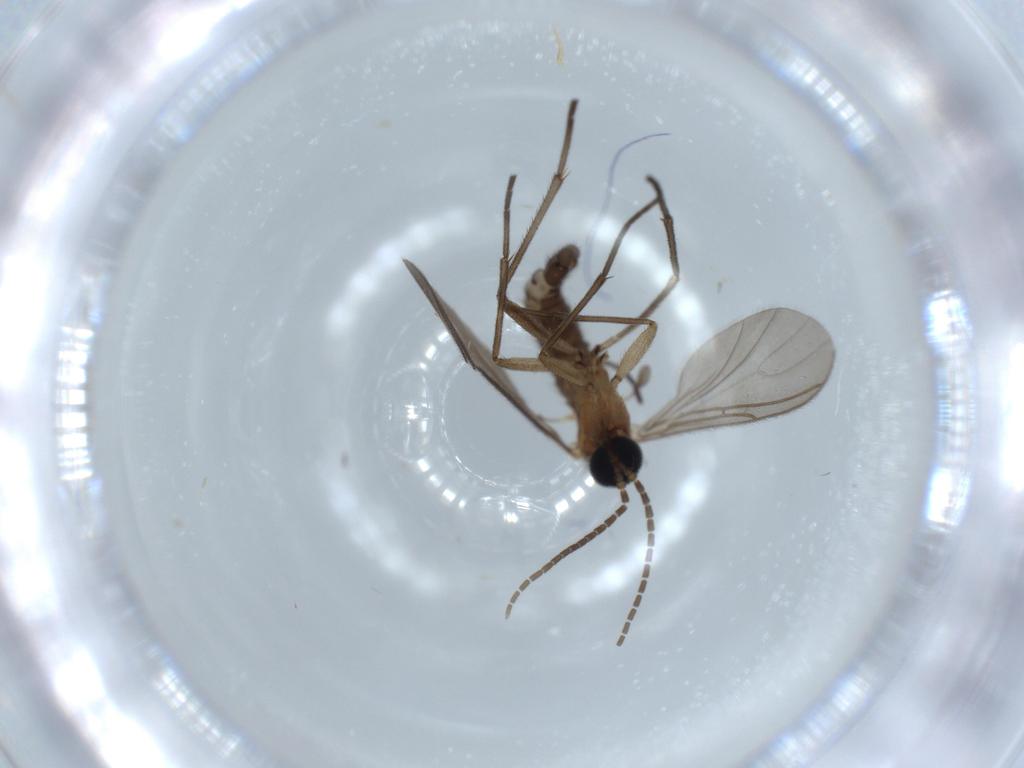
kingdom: Animalia
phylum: Arthropoda
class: Insecta
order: Diptera
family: Sciaridae
